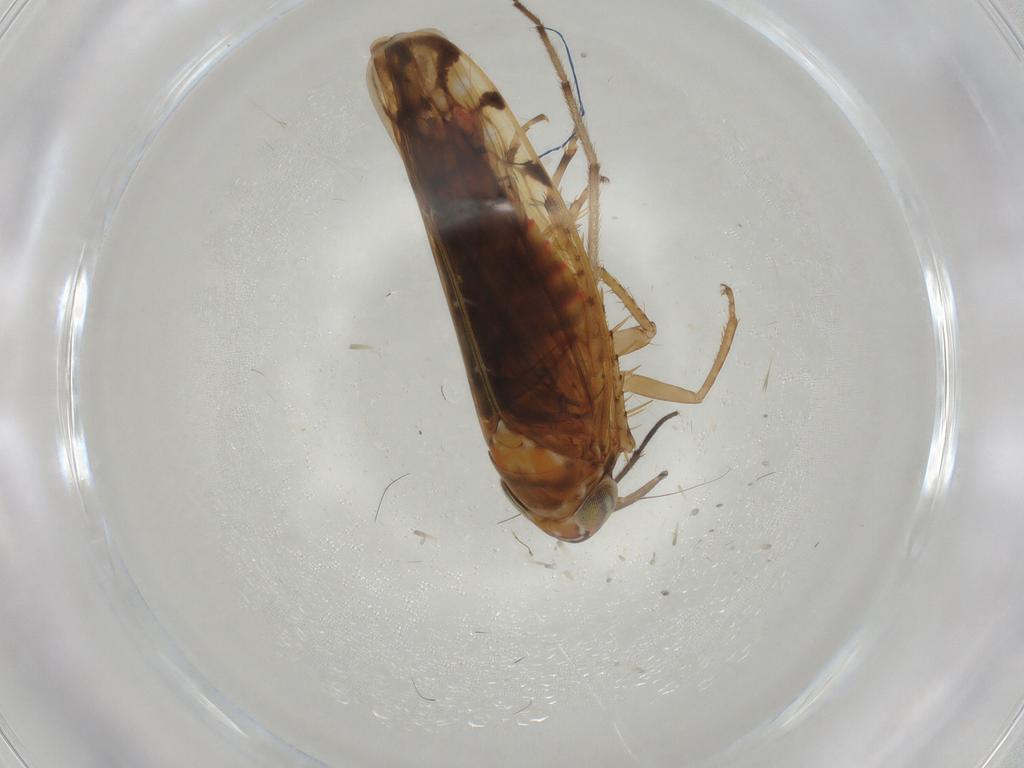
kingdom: Animalia
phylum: Arthropoda
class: Insecta
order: Hemiptera
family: Cicadellidae
